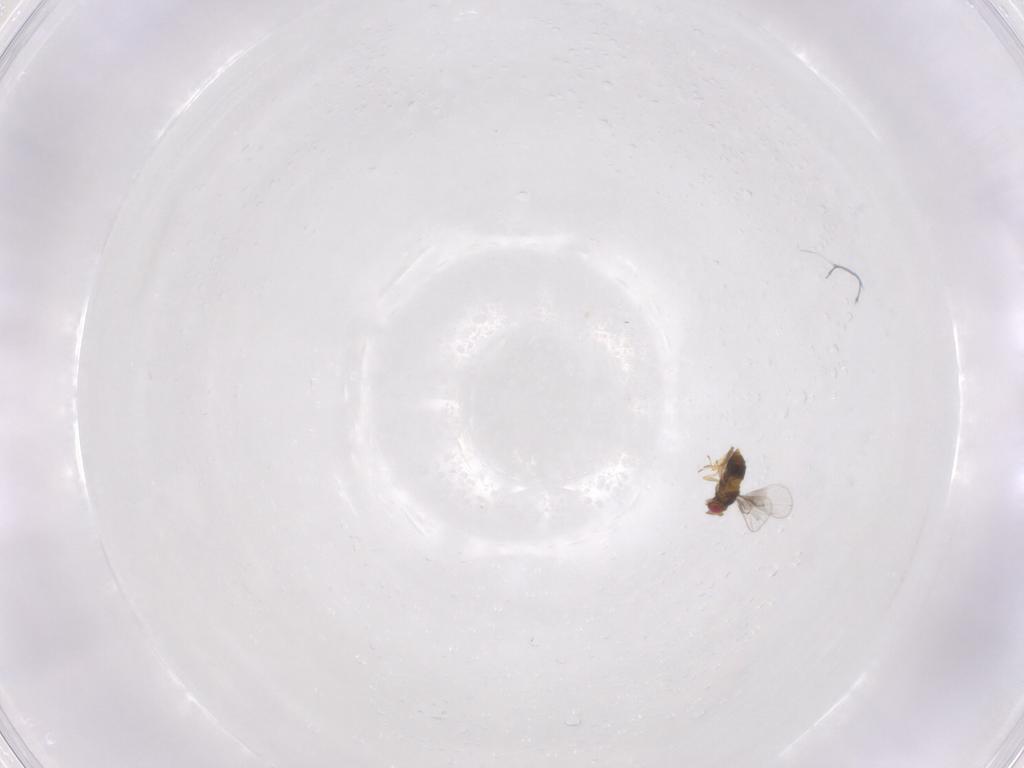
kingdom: Animalia
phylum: Arthropoda
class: Insecta
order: Hymenoptera
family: Trichogrammatidae
